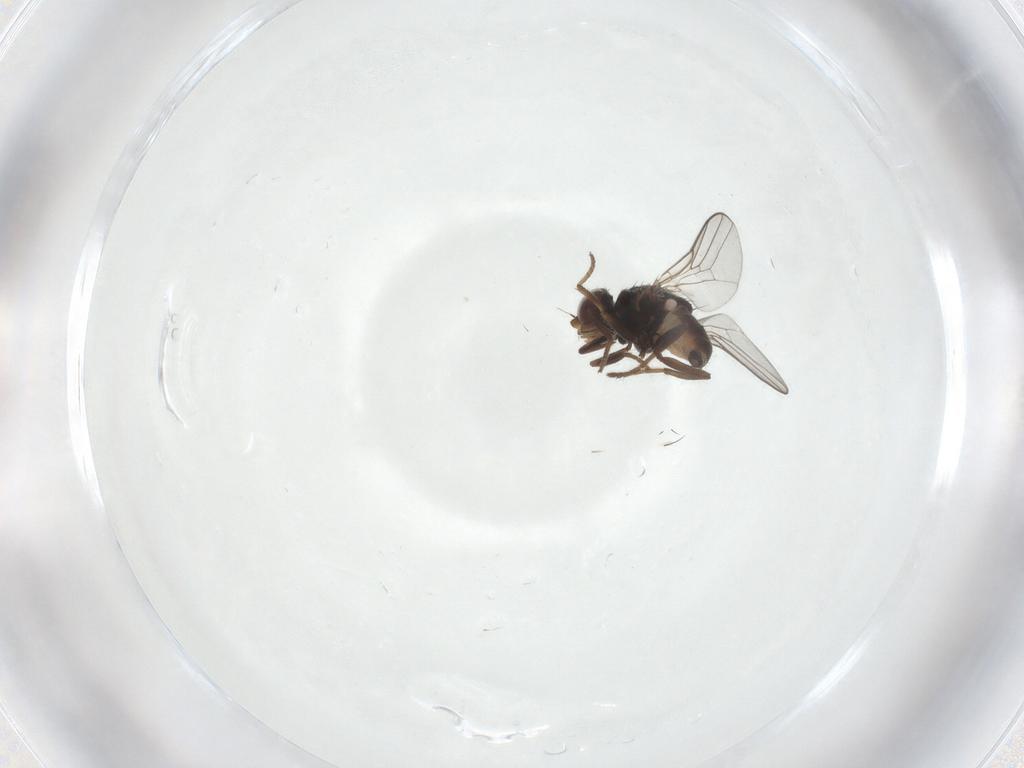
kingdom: Animalia
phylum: Arthropoda
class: Insecta
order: Diptera
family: Chloropidae
